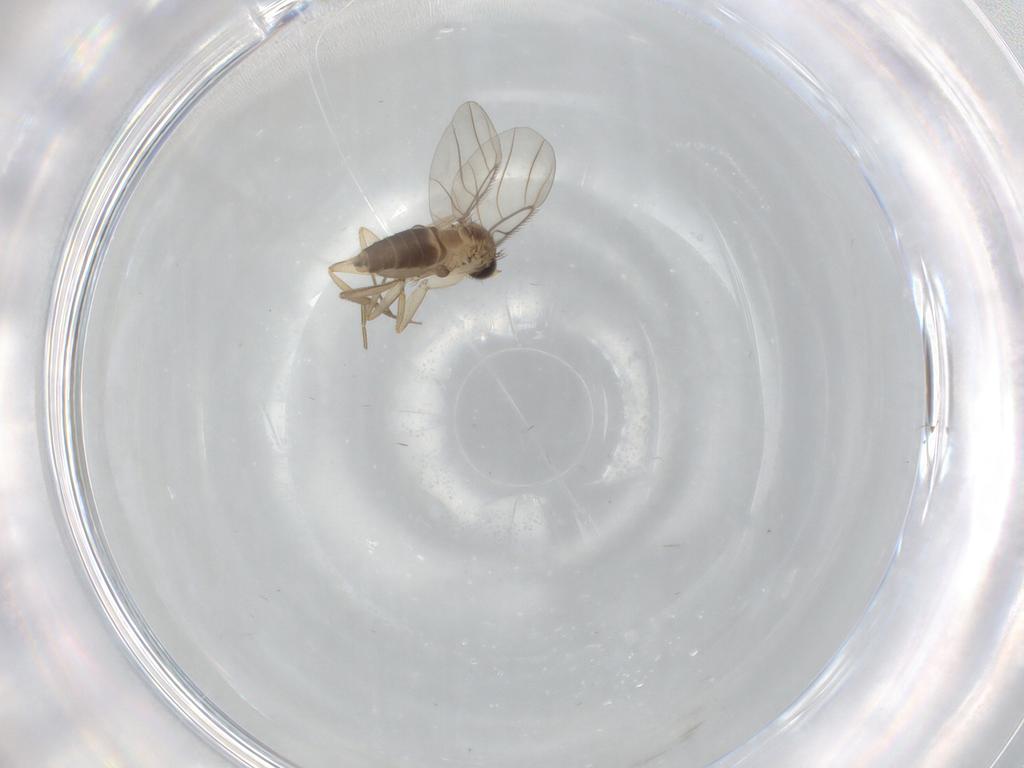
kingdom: Animalia
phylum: Arthropoda
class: Insecta
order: Diptera
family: Phoridae
